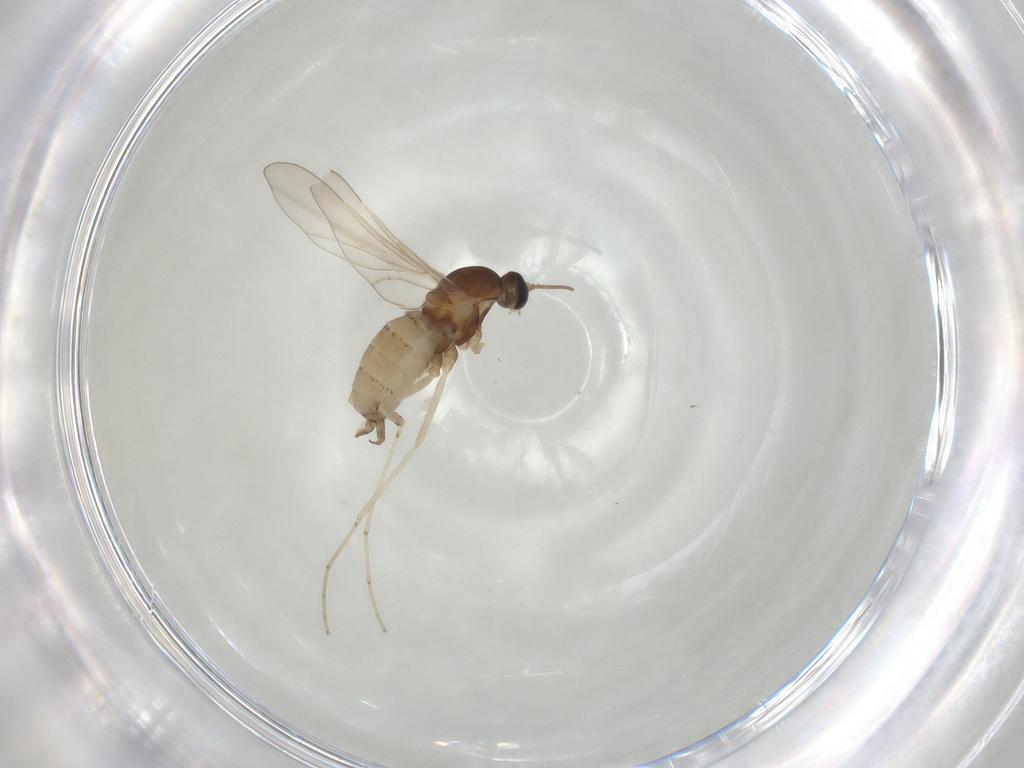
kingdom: Animalia
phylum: Arthropoda
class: Insecta
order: Diptera
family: Cecidomyiidae
